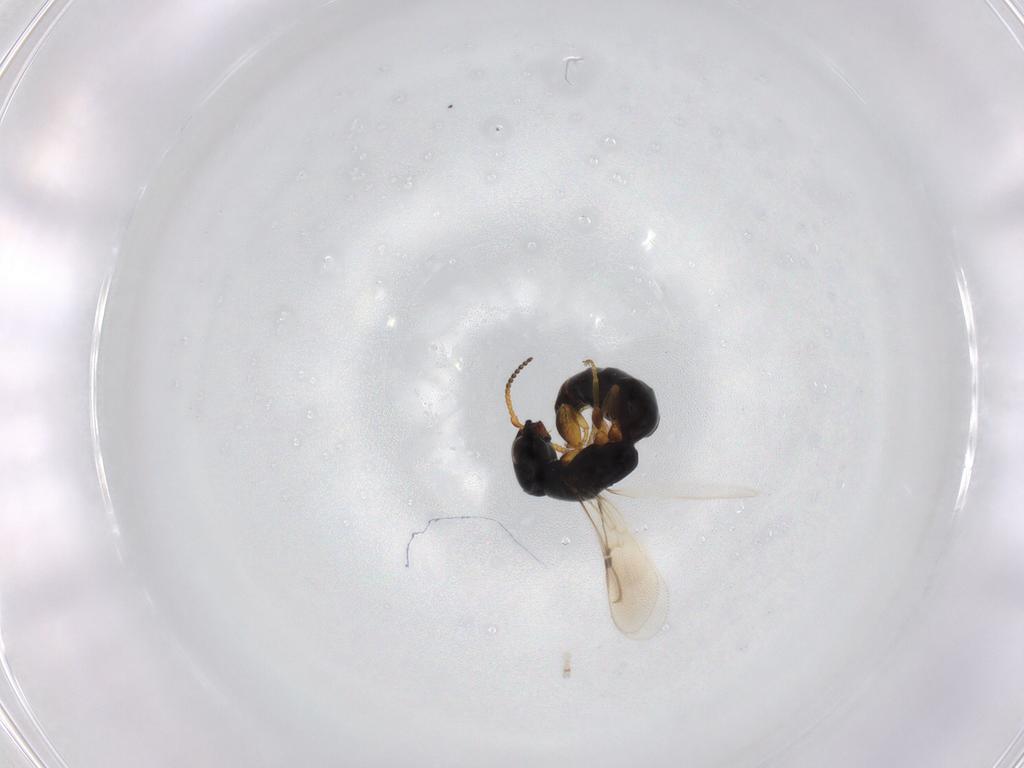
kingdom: Animalia
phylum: Arthropoda
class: Insecta
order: Hymenoptera
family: Bethylidae
